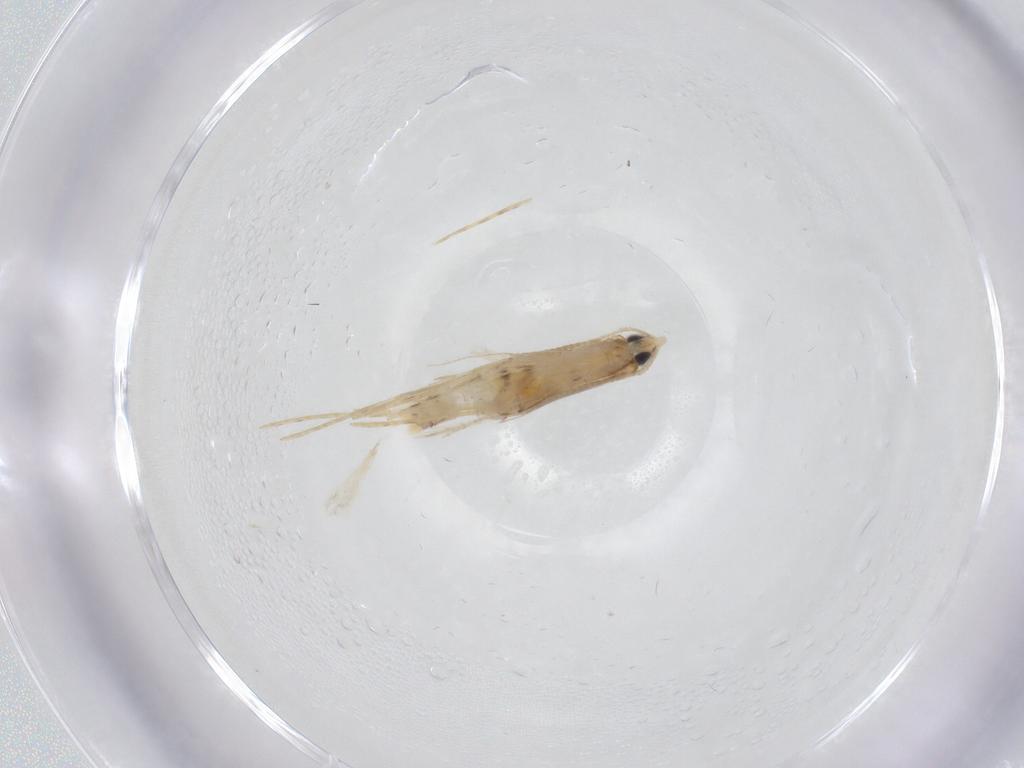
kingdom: Animalia
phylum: Arthropoda
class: Insecta
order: Lepidoptera
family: Tineidae
